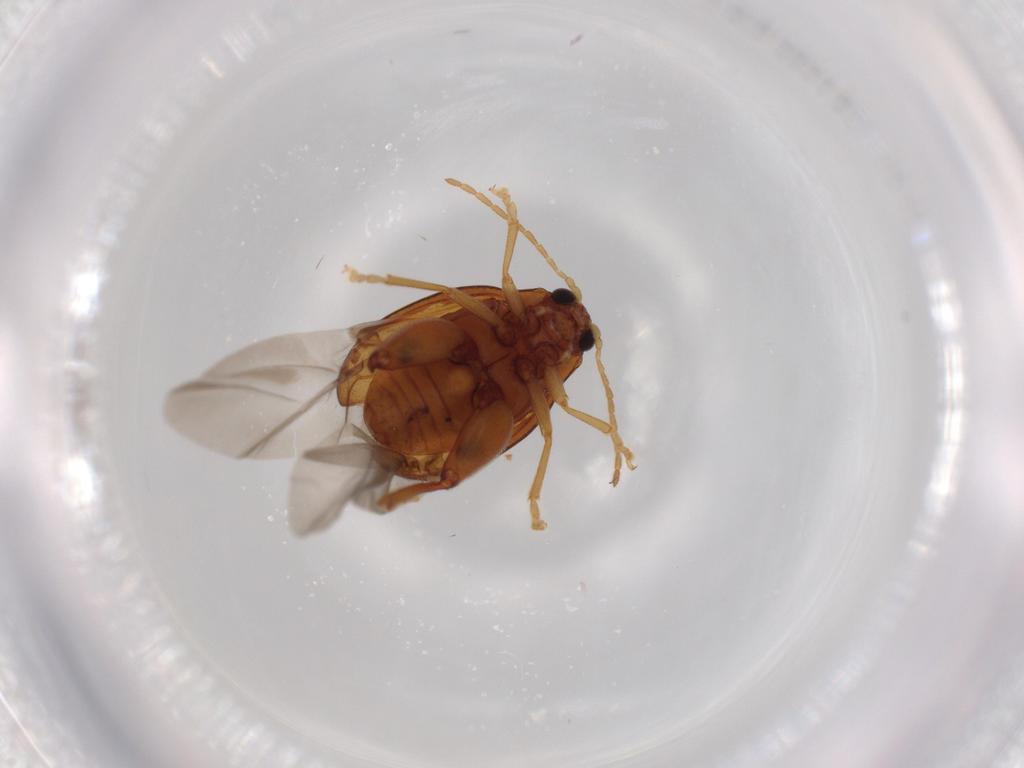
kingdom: Animalia
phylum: Arthropoda
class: Insecta
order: Coleoptera
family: Chrysomelidae
